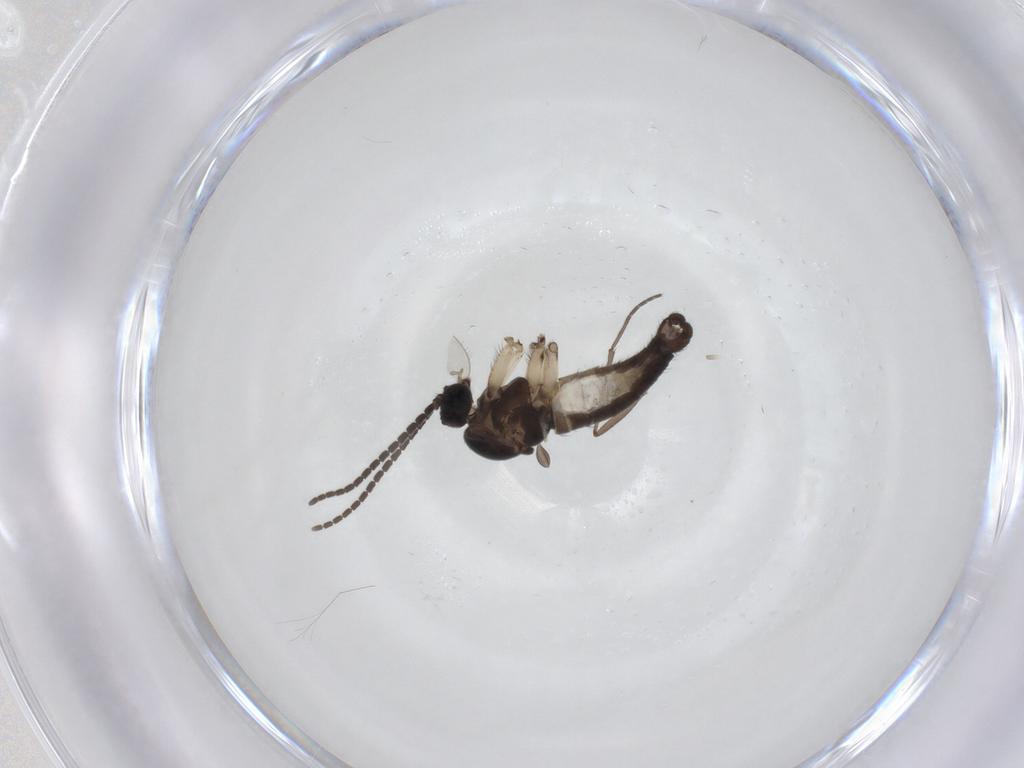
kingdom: Animalia
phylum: Arthropoda
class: Insecta
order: Diptera
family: Sciaridae
